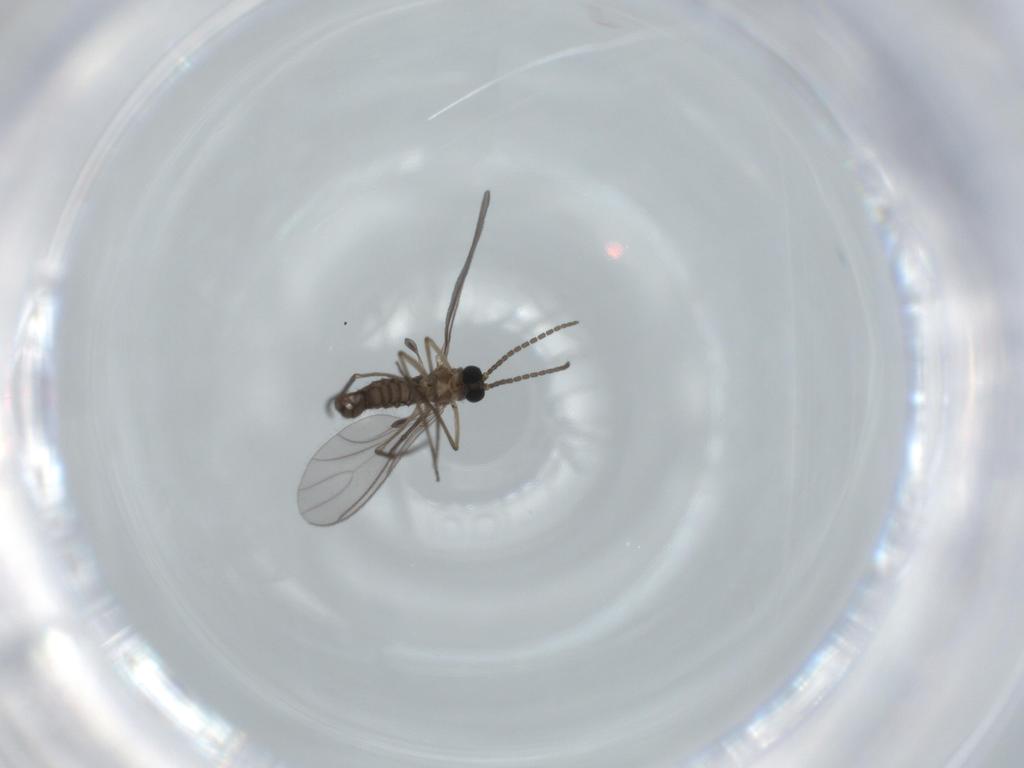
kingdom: Animalia
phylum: Arthropoda
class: Insecta
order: Diptera
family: Sciaridae
